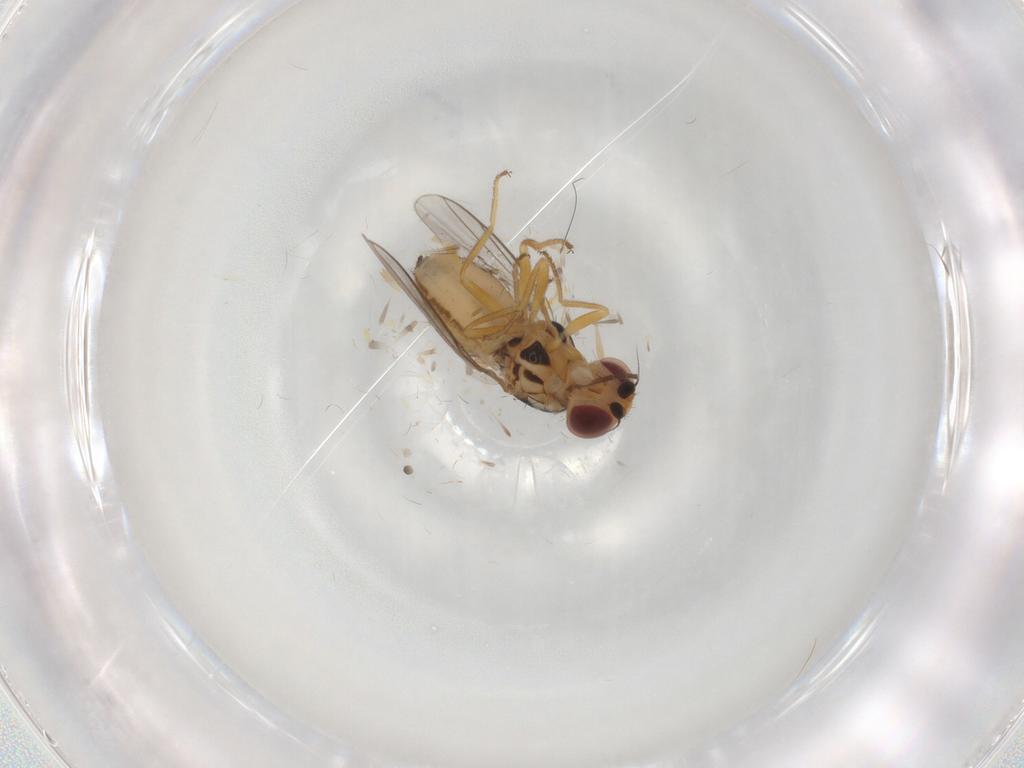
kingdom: Animalia
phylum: Arthropoda
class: Insecta
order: Diptera
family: Chloropidae
